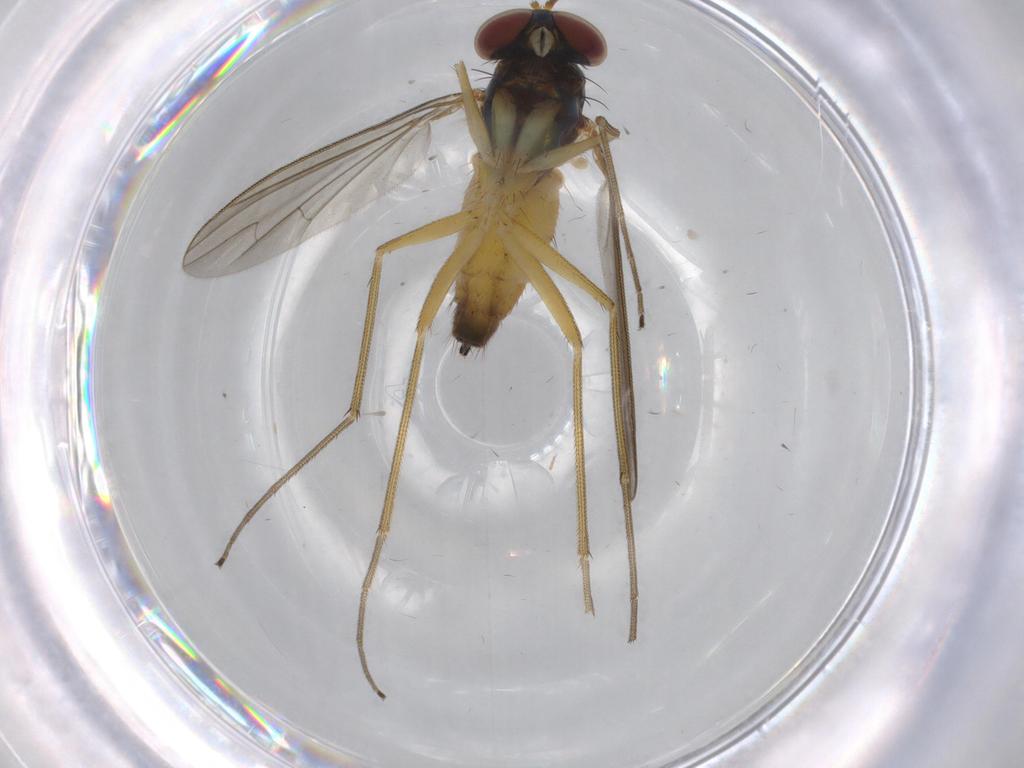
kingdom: Animalia
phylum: Arthropoda
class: Insecta
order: Diptera
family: Dolichopodidae
